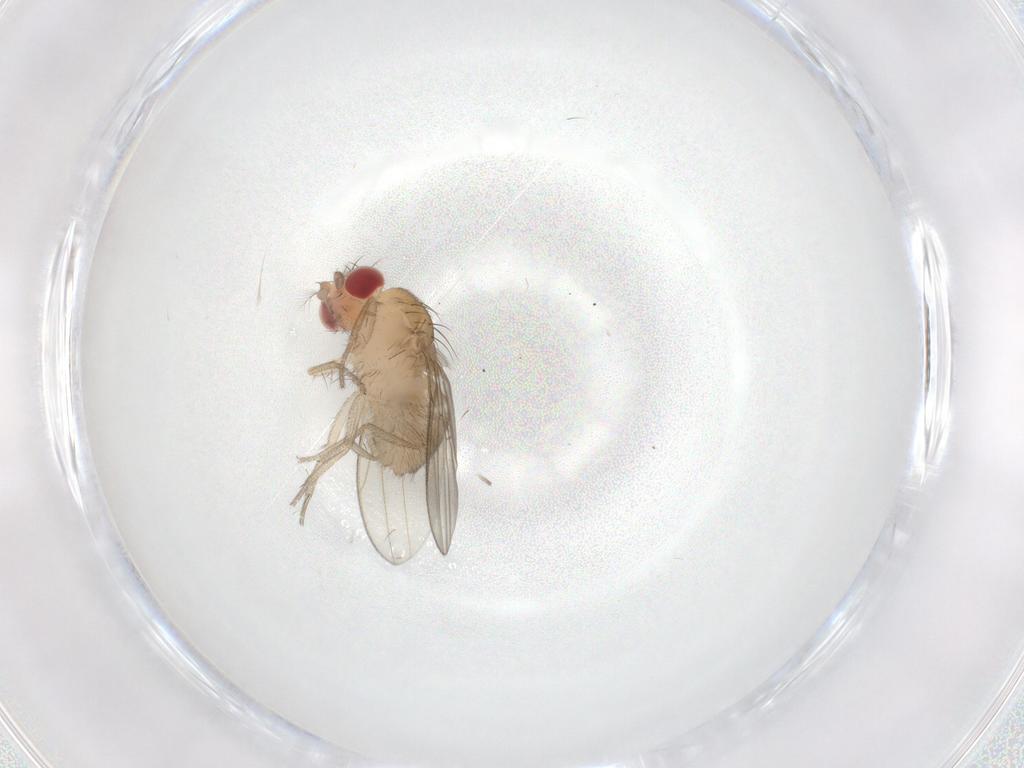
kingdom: Animalia
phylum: Arthropoda
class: Insecta
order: Diptera
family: Drosophilidae
